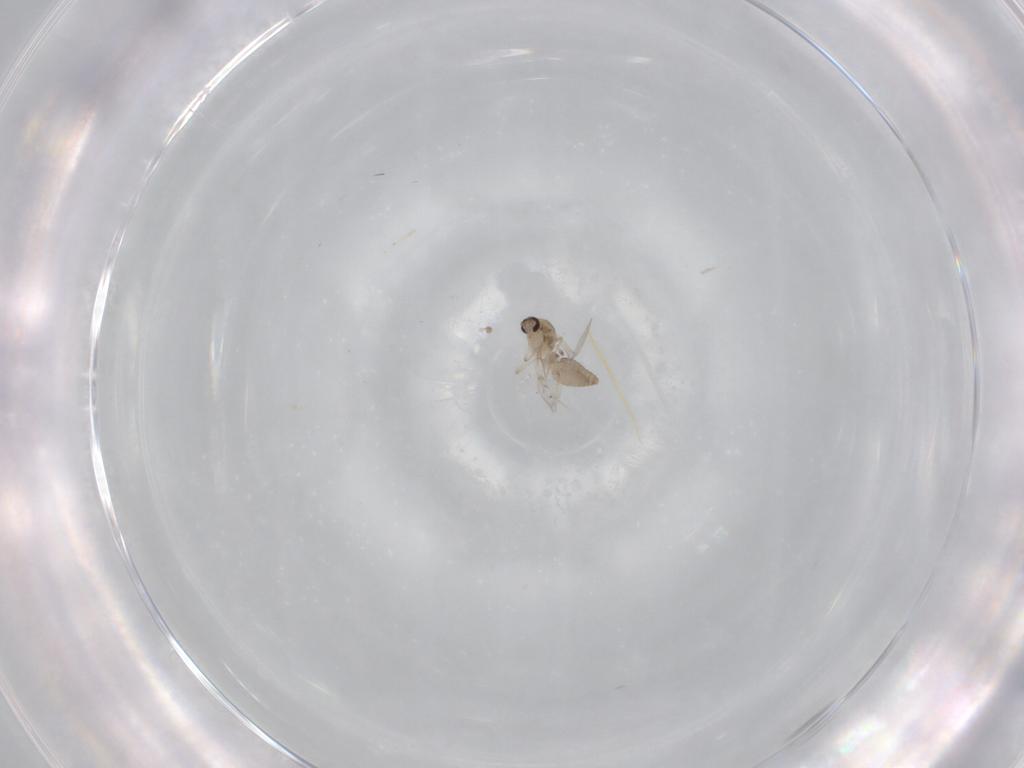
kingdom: Animalia
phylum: Arthropoda
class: Insecta
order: Diptera
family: Ceratopogonidae
